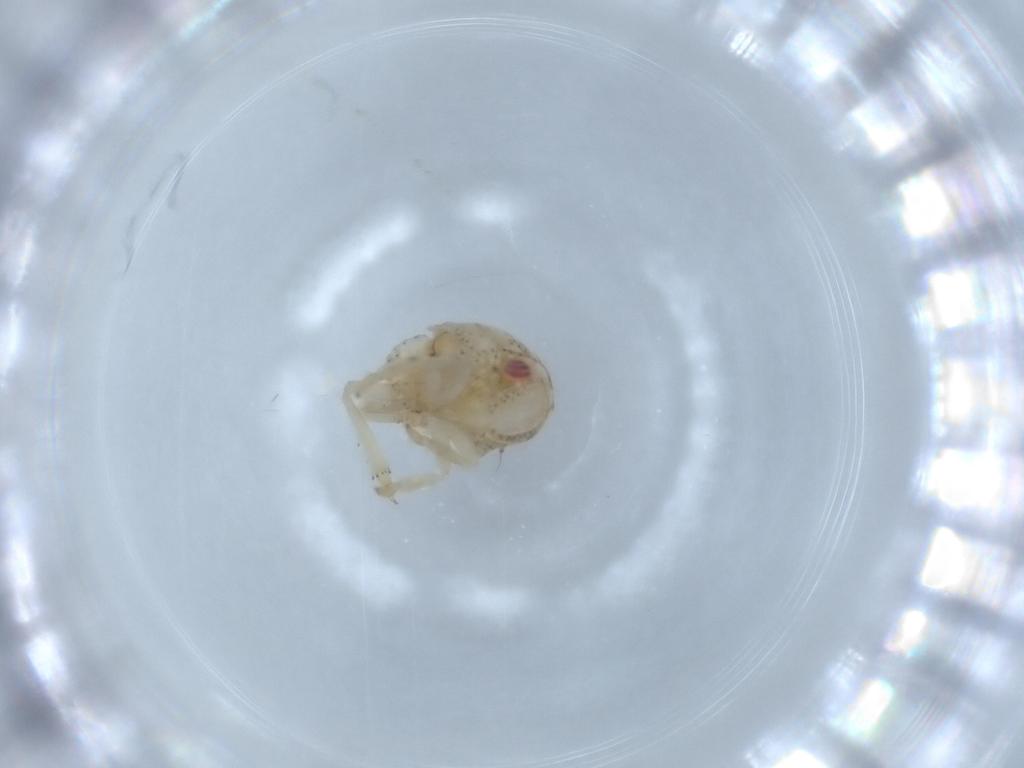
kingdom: Animalia
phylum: Arthropoda
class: Insecta
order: Hemiptera
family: Acanaloniidae
